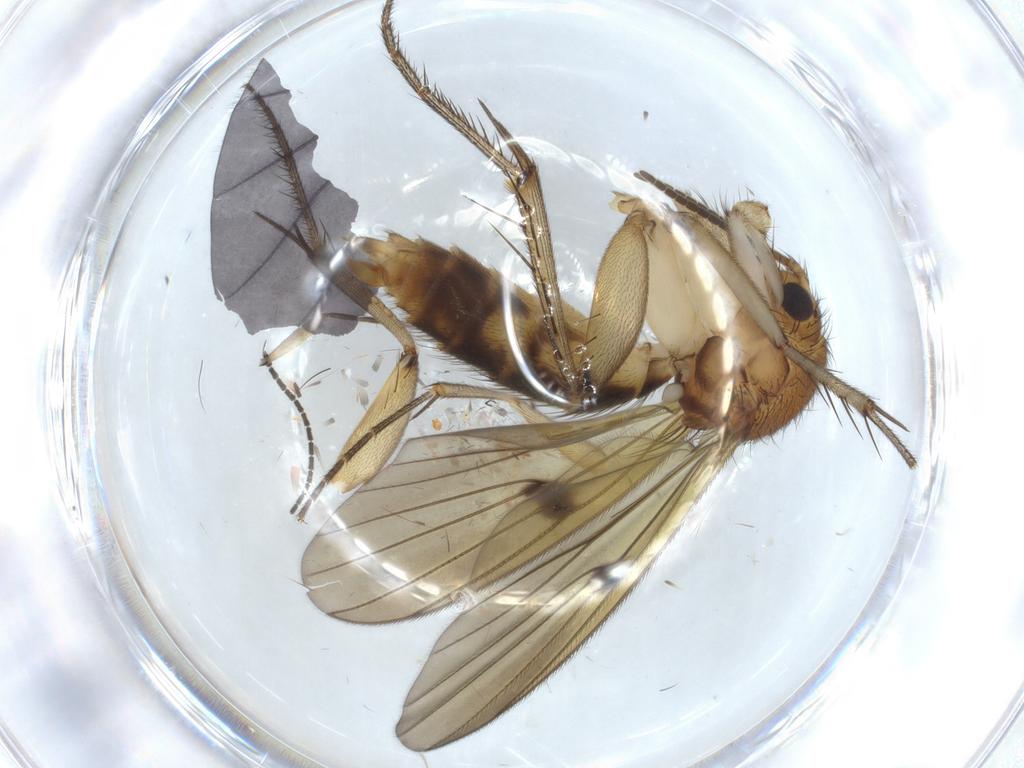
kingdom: Animalia
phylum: Arthropoda
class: Insecta
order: Diptera
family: Mycetophilidae
